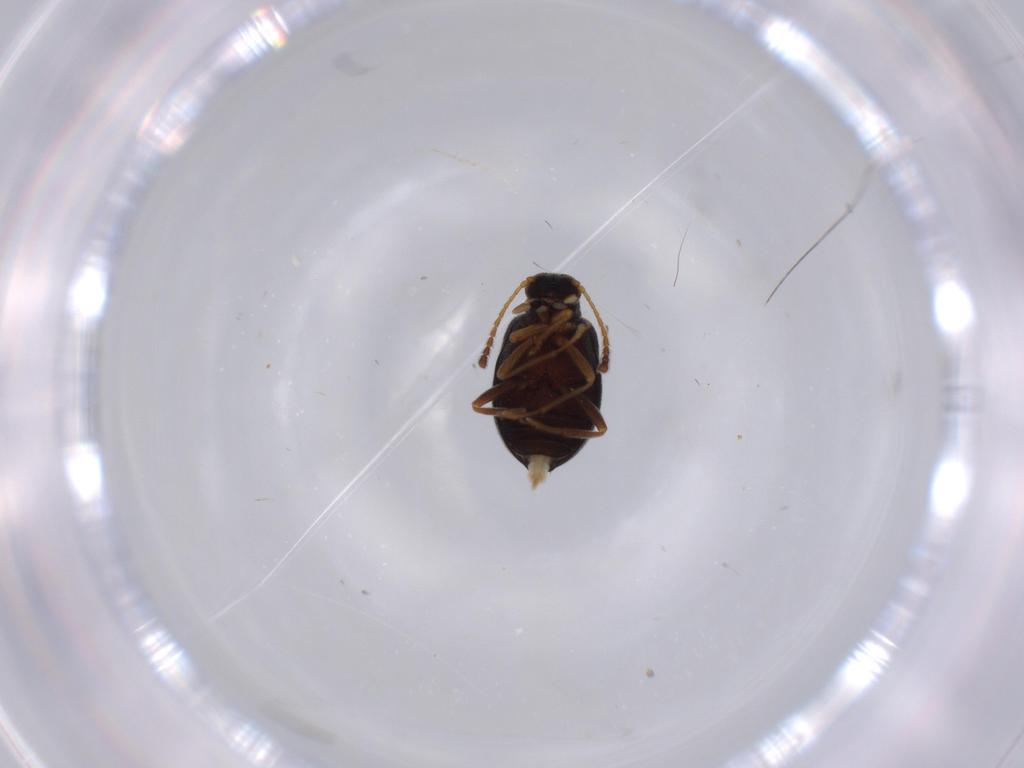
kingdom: Animalia
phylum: Arthropoda
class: Insecta
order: Coleoptera
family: Aderidae
